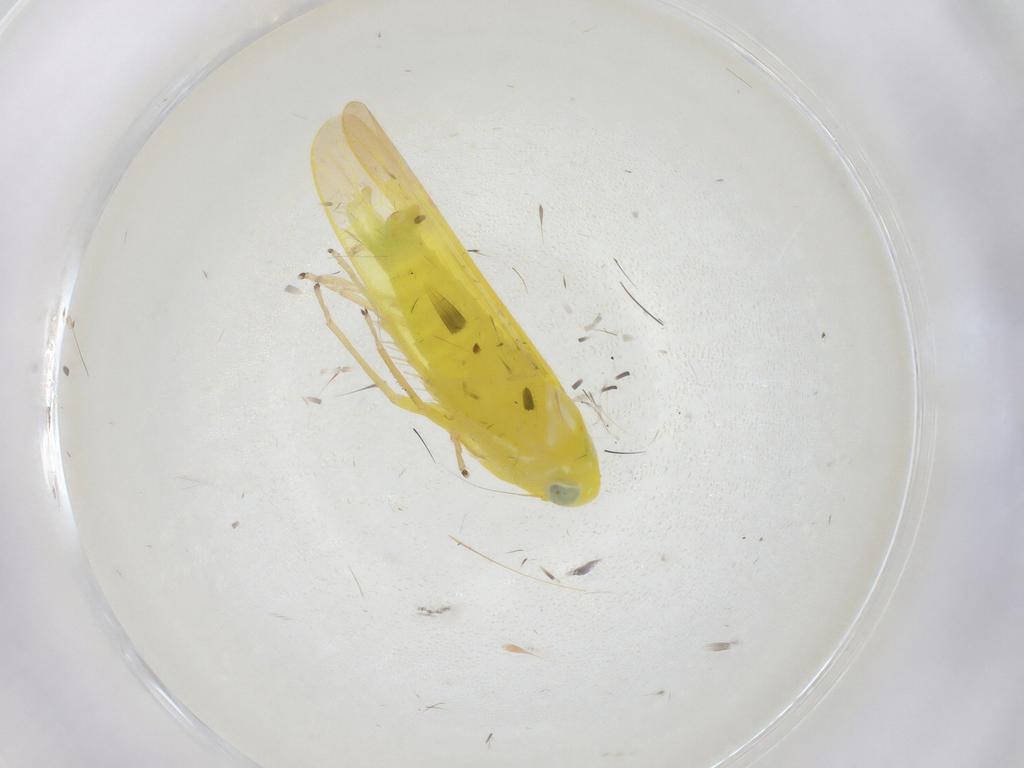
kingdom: Animalia
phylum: Arthropoda
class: Insecta
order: Hemiptera
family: Cicadellidae
